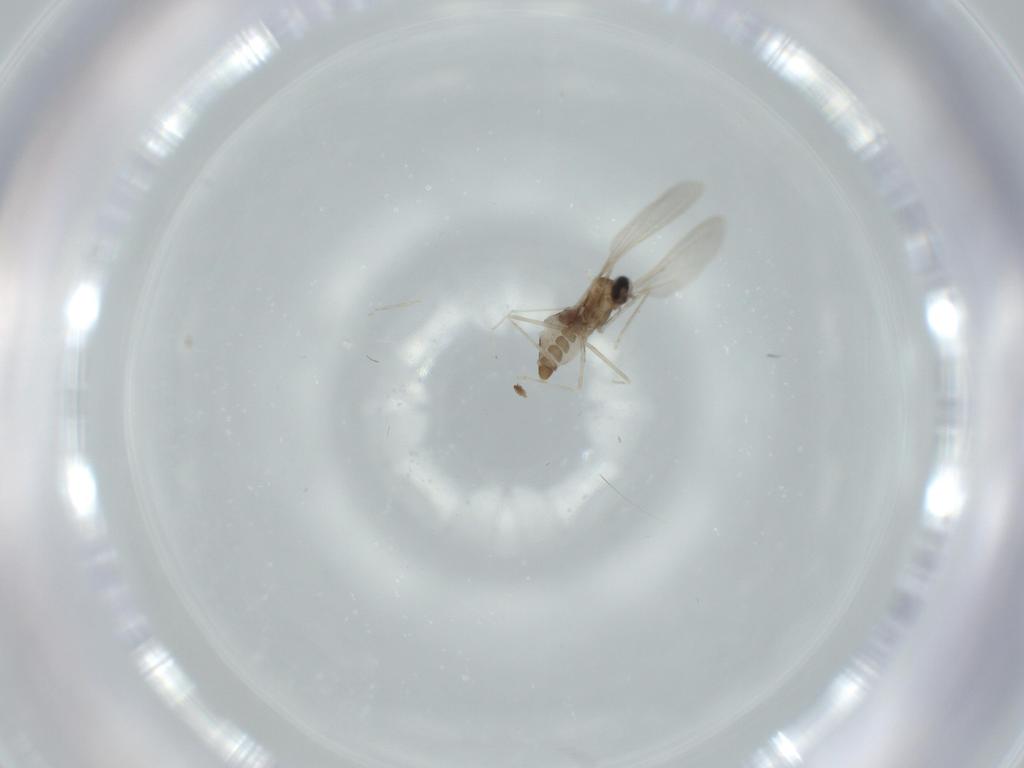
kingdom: Animalia
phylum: Arthropoda
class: Insecta
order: Diptera
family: Cecidomyiidae
